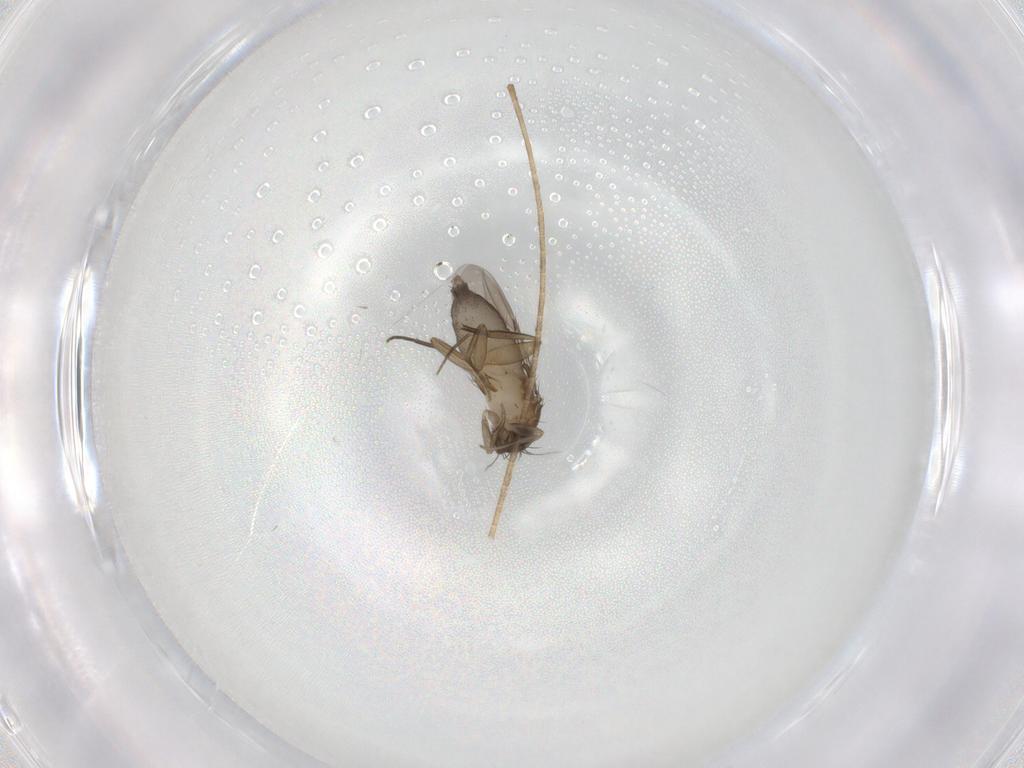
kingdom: Animalia
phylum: Arthropoda
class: Insecta
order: Diptera
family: Phoridae
